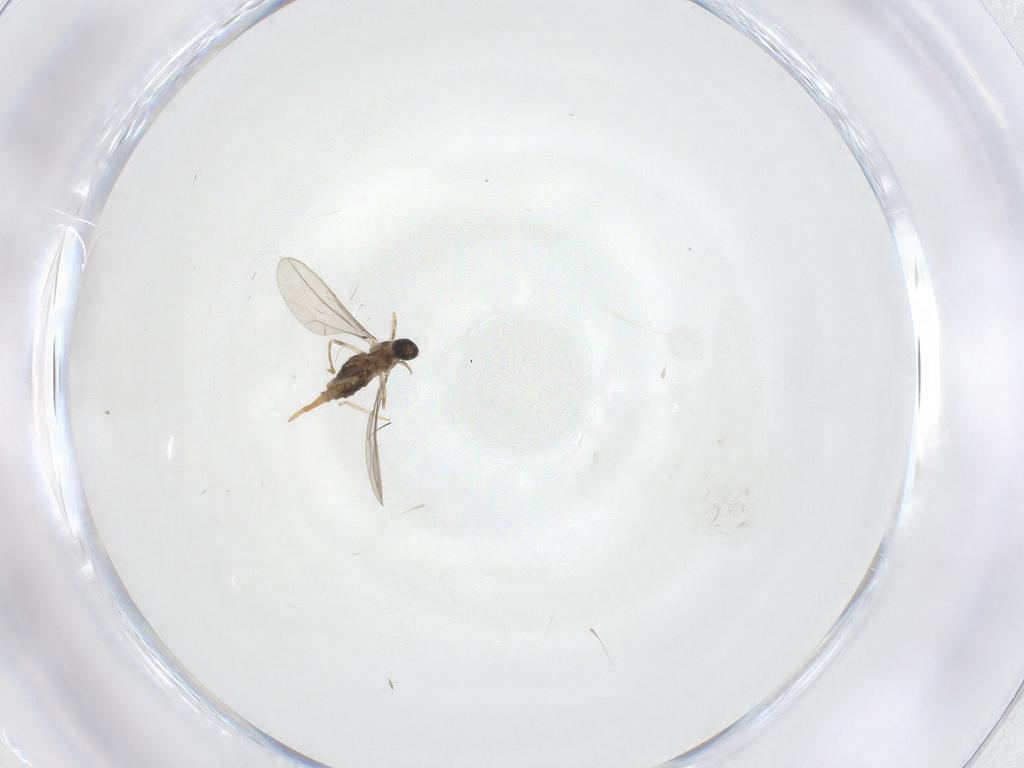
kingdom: Animalia
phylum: Arthropoda
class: Insecta
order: Diptera
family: Cecidomyiidae
